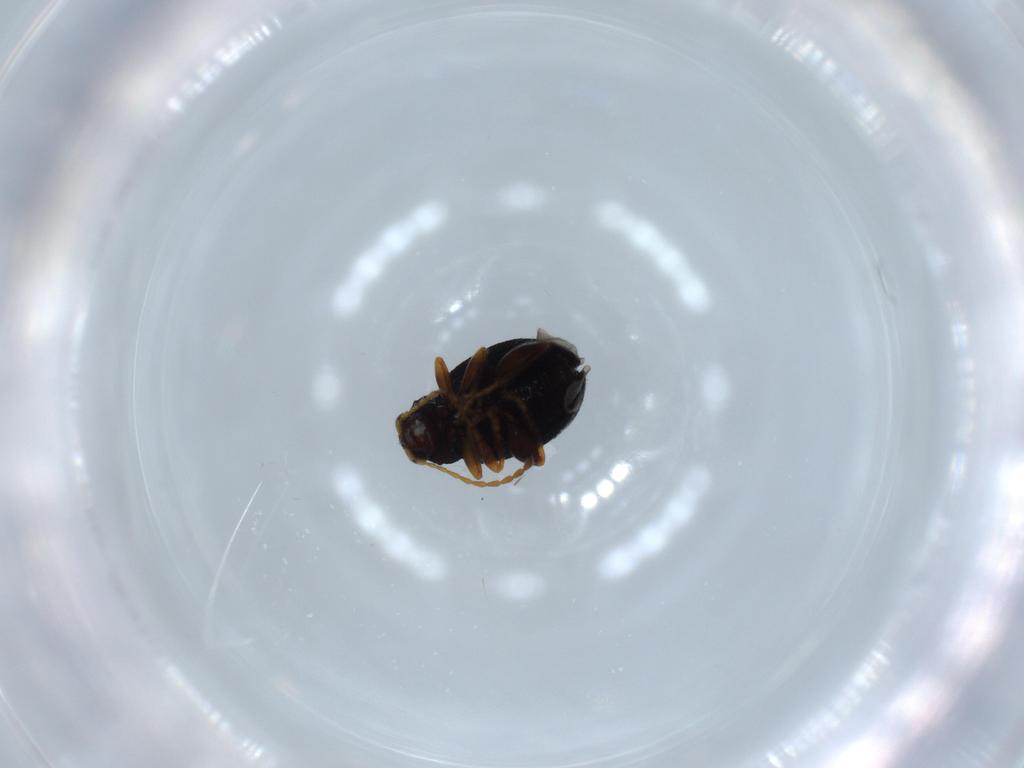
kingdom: Animalia
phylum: Arthropoda
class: Insecta
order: Coleoptera
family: Chrysomelidae
